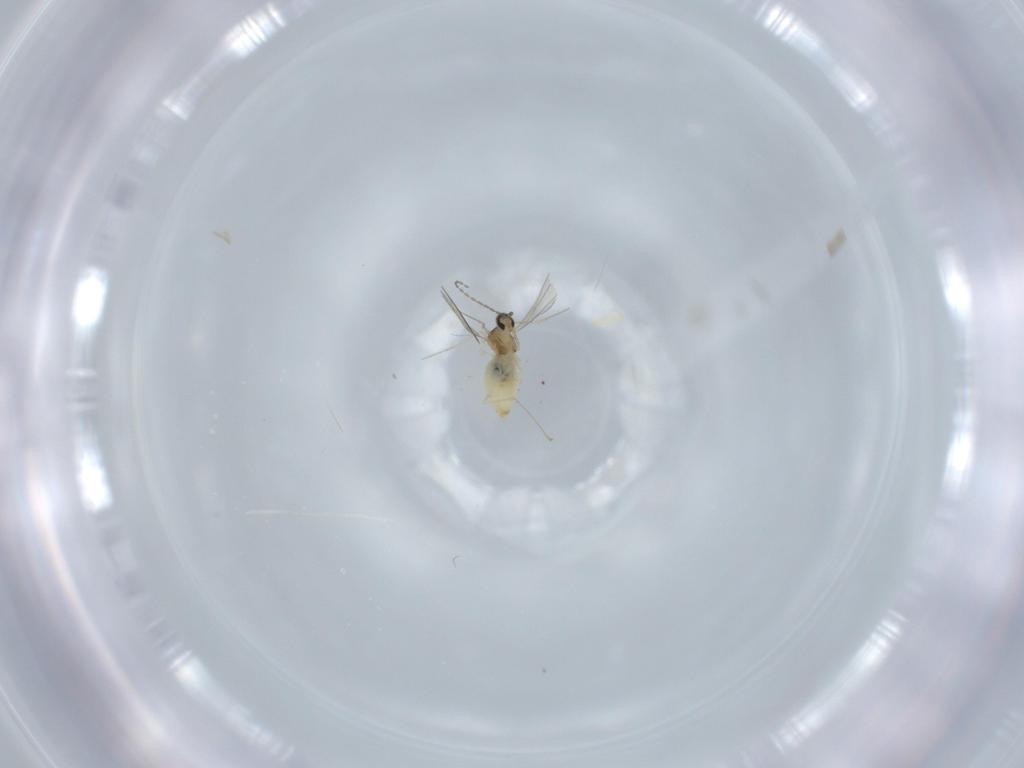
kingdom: Animalia
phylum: Arthropoda
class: Insecta
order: Diptera
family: Cecidomyiidae
